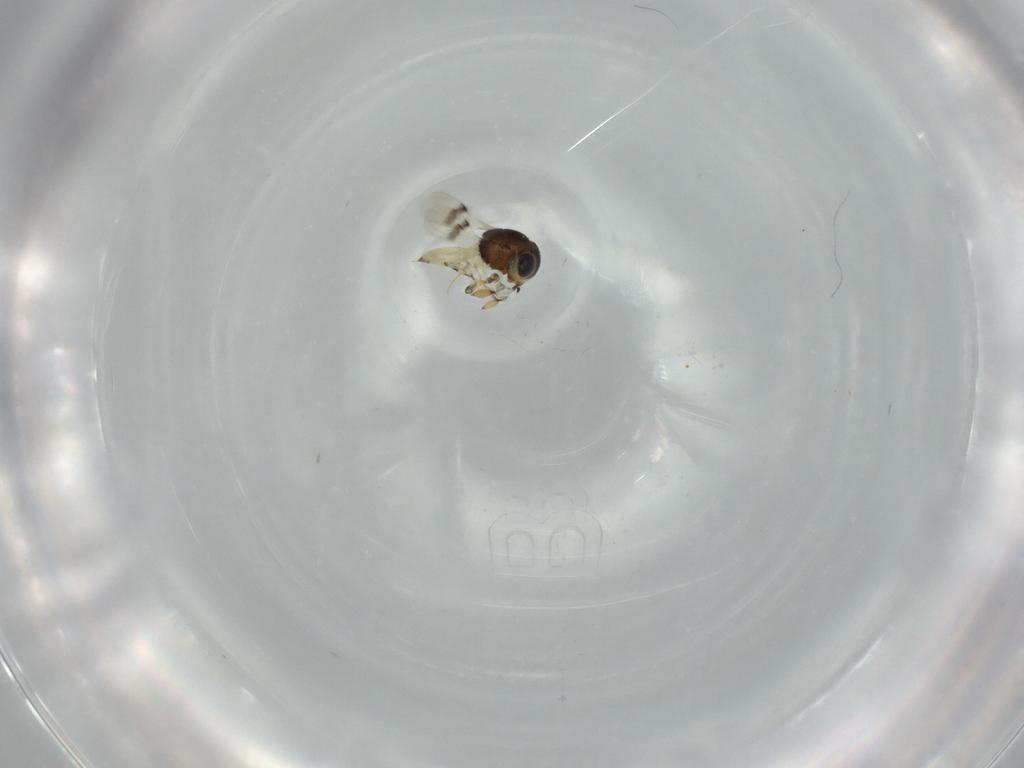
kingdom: Animalia
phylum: Arthropoda
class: Insecta
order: Hymenoptera
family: Scelionidae
